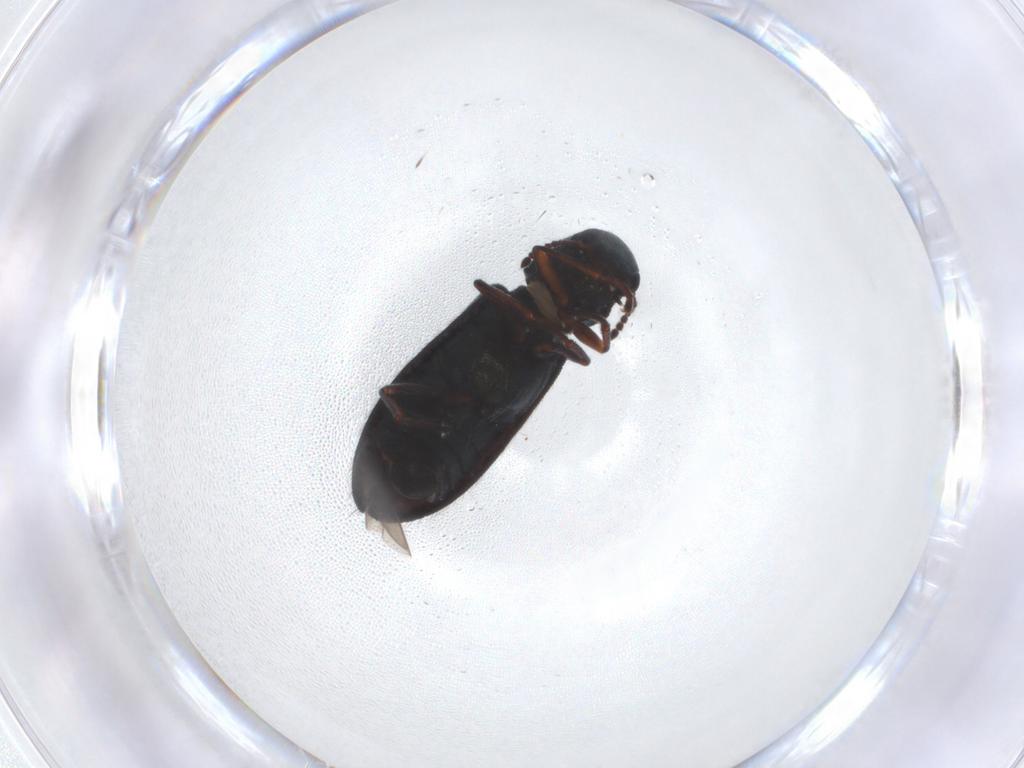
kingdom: Animalia
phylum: Arthropoda
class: Insecta
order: Coleoptera
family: Melyridae
